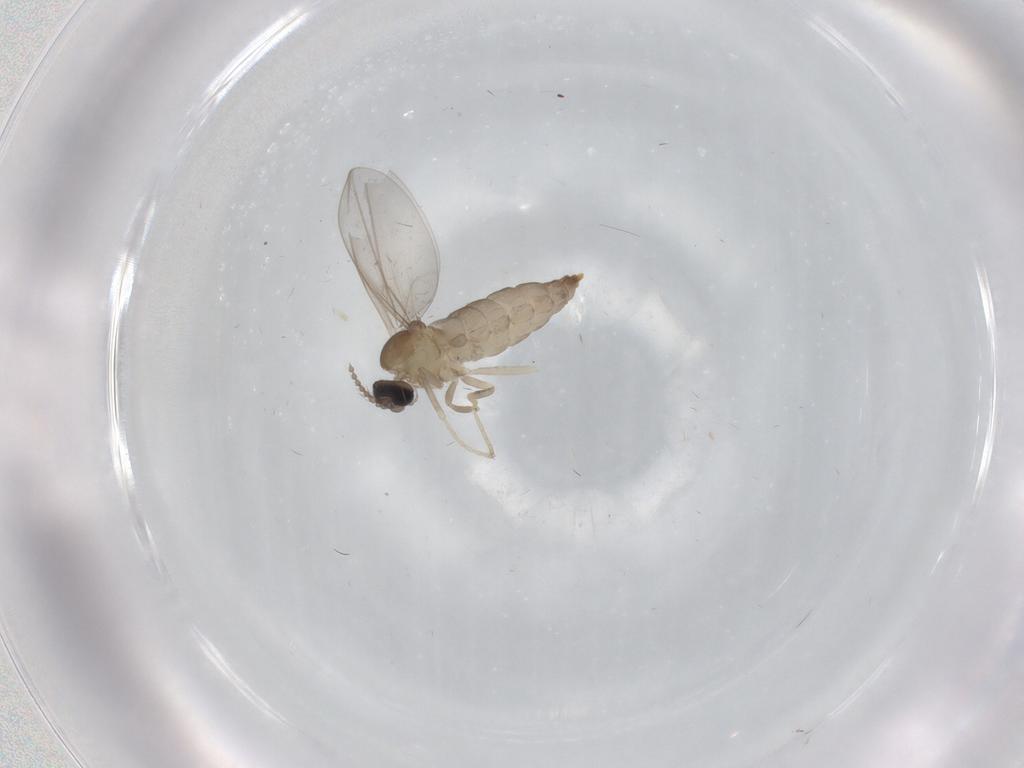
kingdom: Animalia
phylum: Arthropoda
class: Insecta
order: Diptera
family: Cecidomyiidae
